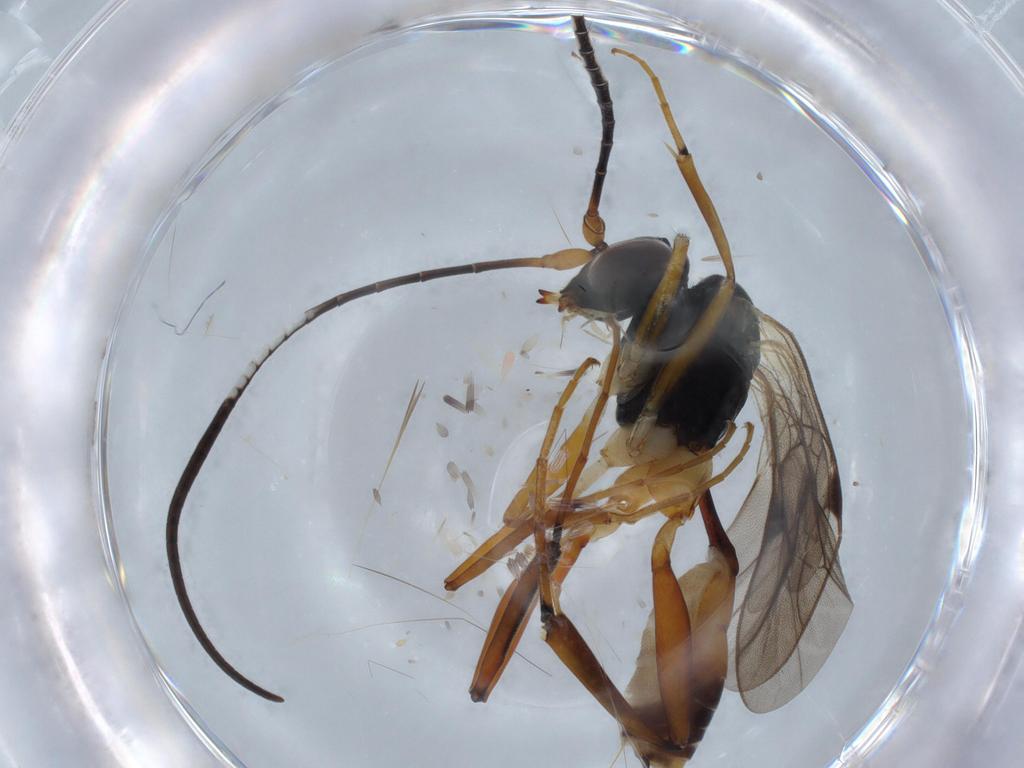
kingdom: Animalia
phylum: Arthropoda
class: Insecta
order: Hymenoptera
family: Ichneumonidae
